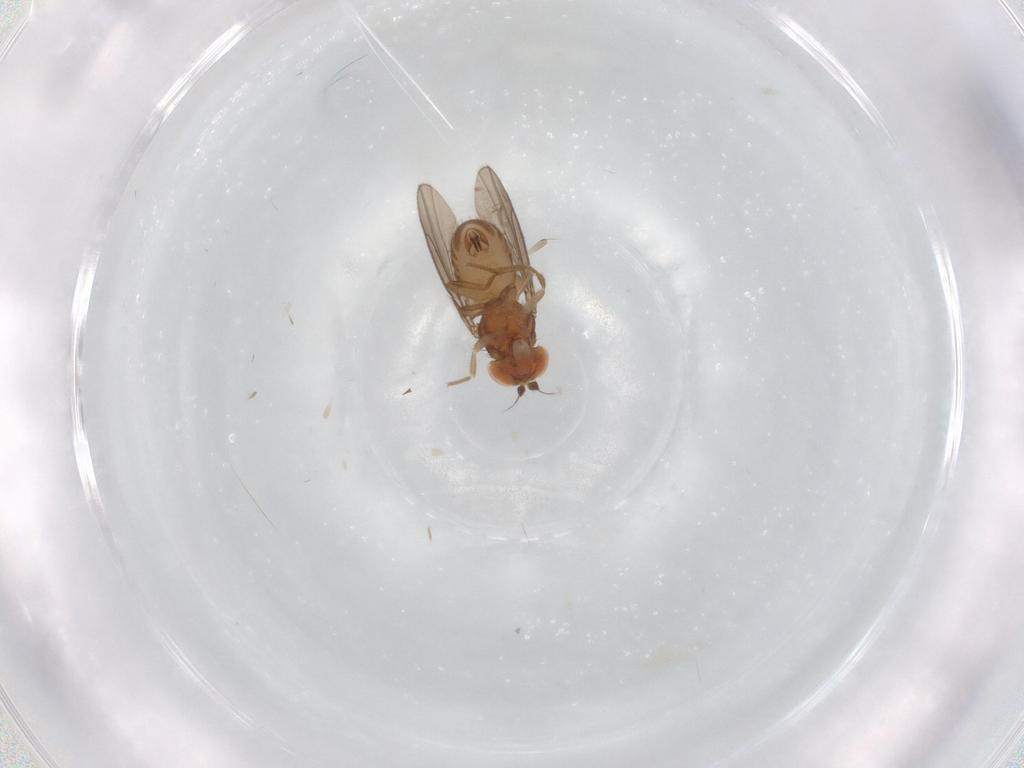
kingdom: Animalia
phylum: Arthropoda
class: Insecta
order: Diptera
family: Drosophilidae
